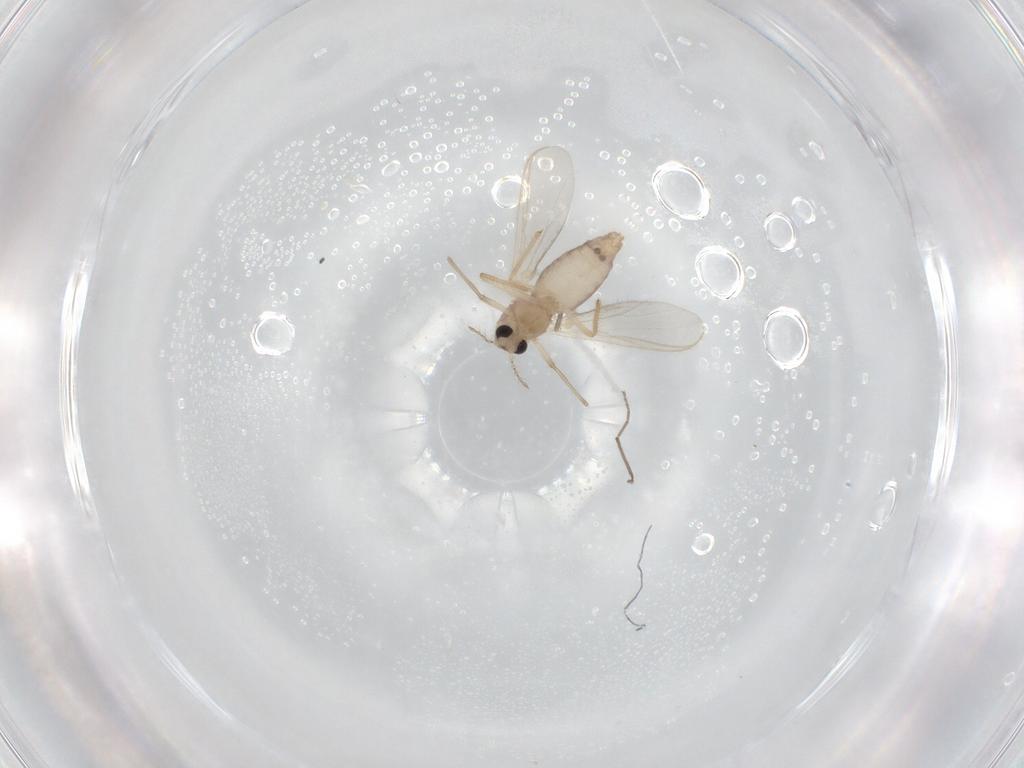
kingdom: Animalia
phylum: Arthropoda
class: Insecta
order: Diptera
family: Chironomidae
